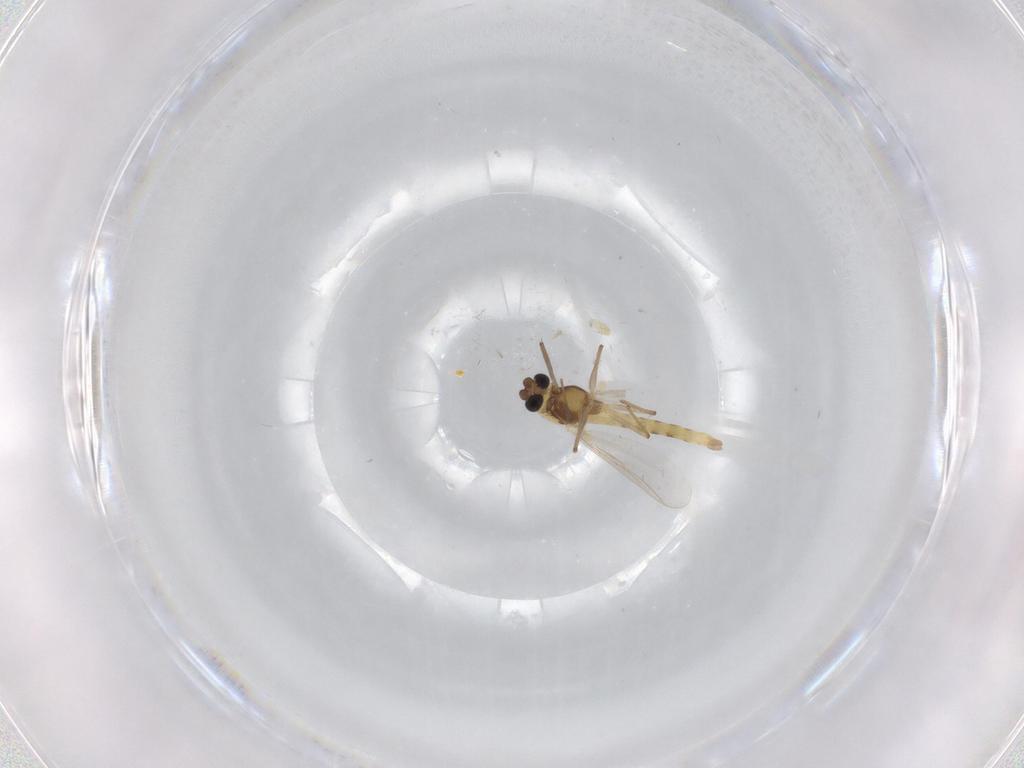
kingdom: Animalia
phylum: Arthropoda
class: Insecta
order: Diptera
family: Chironomidae
